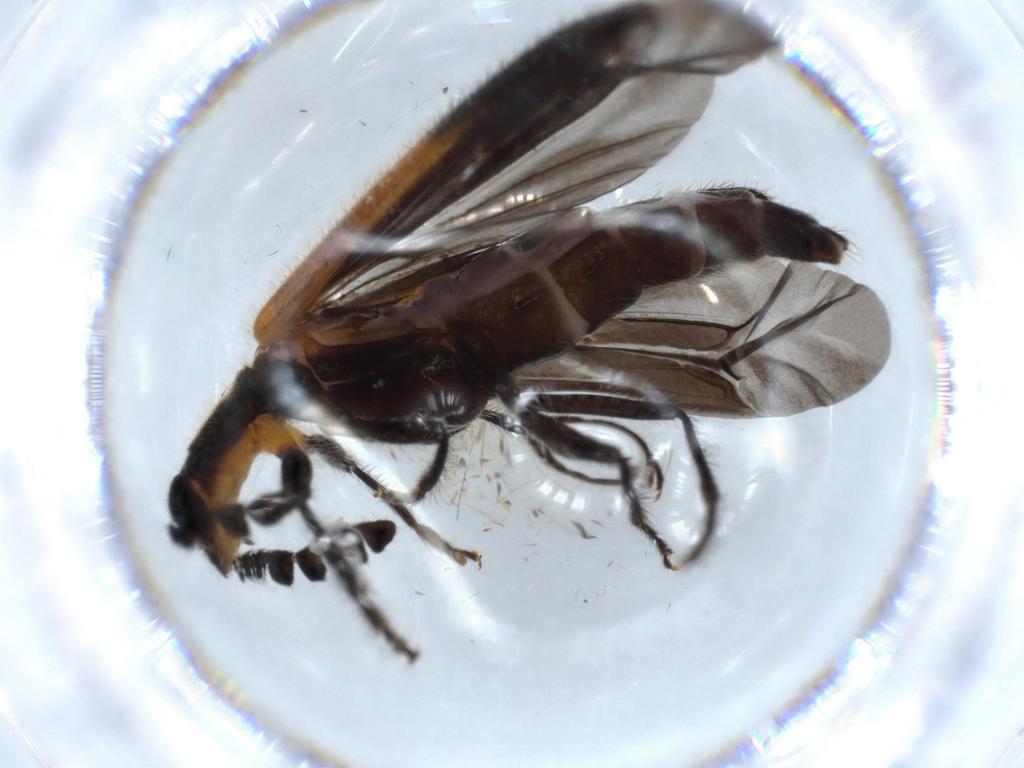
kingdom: Animalia
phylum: Arthropoda
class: Insecta
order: Coleoptera
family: Cleridae
